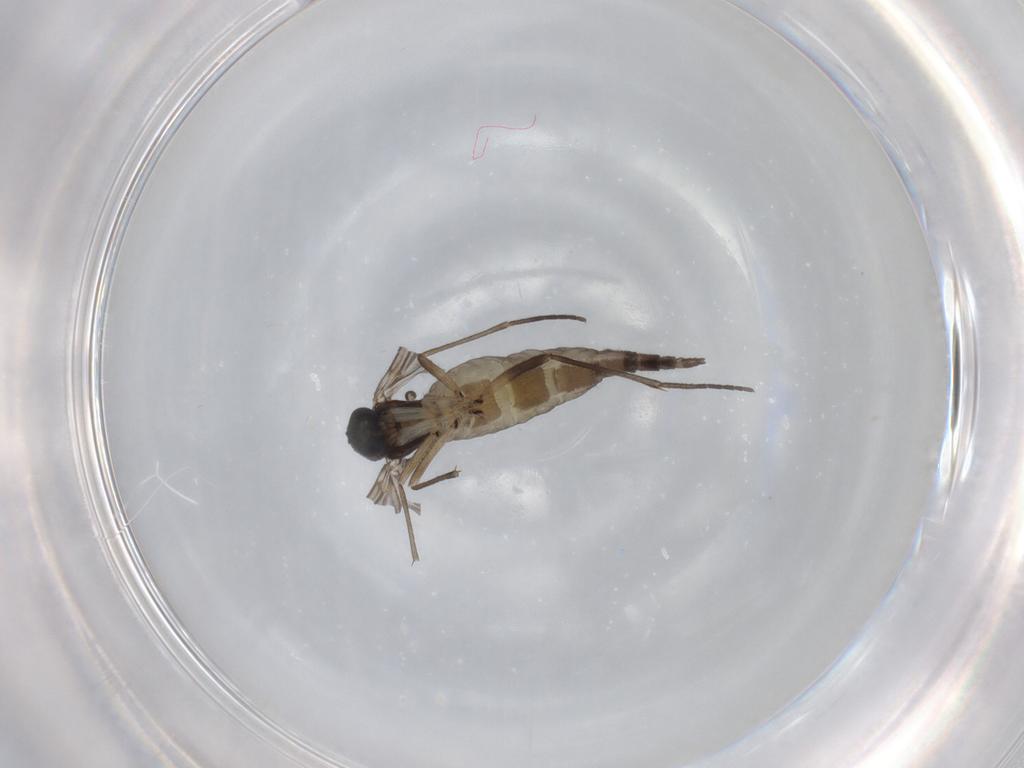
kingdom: Animalia
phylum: Arthropoda
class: Insecta
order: Diptera
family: Sciaridae
